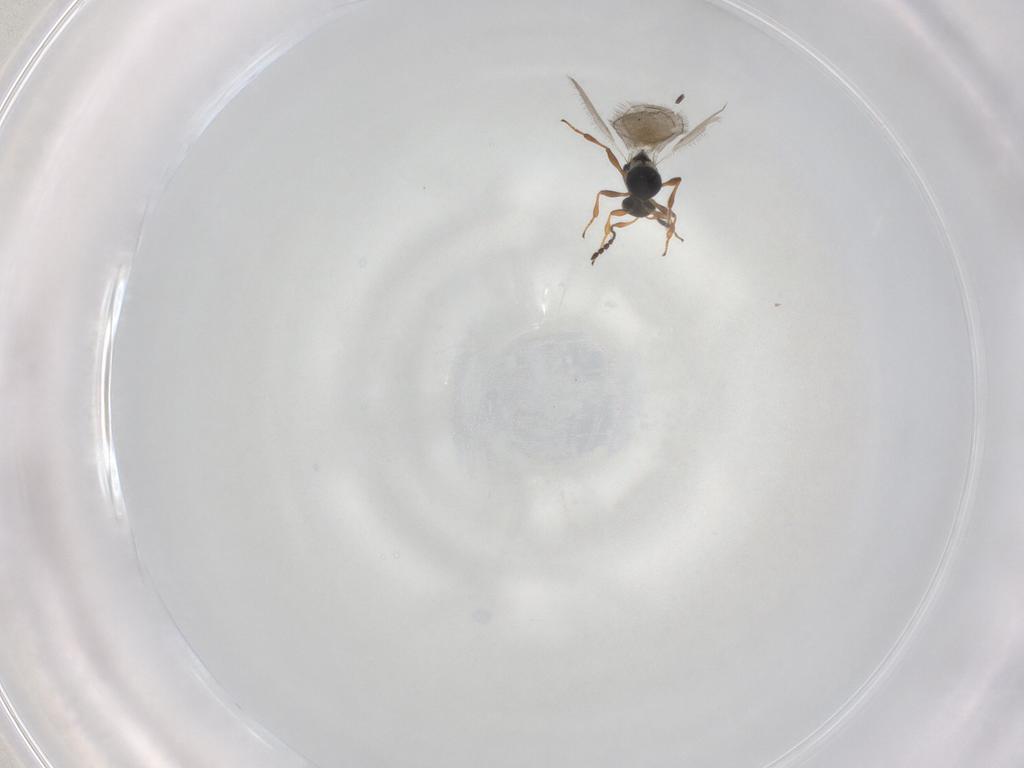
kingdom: Animalia
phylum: Arthropoda
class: Insecta
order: Hymenoptera
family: Platygastridae
